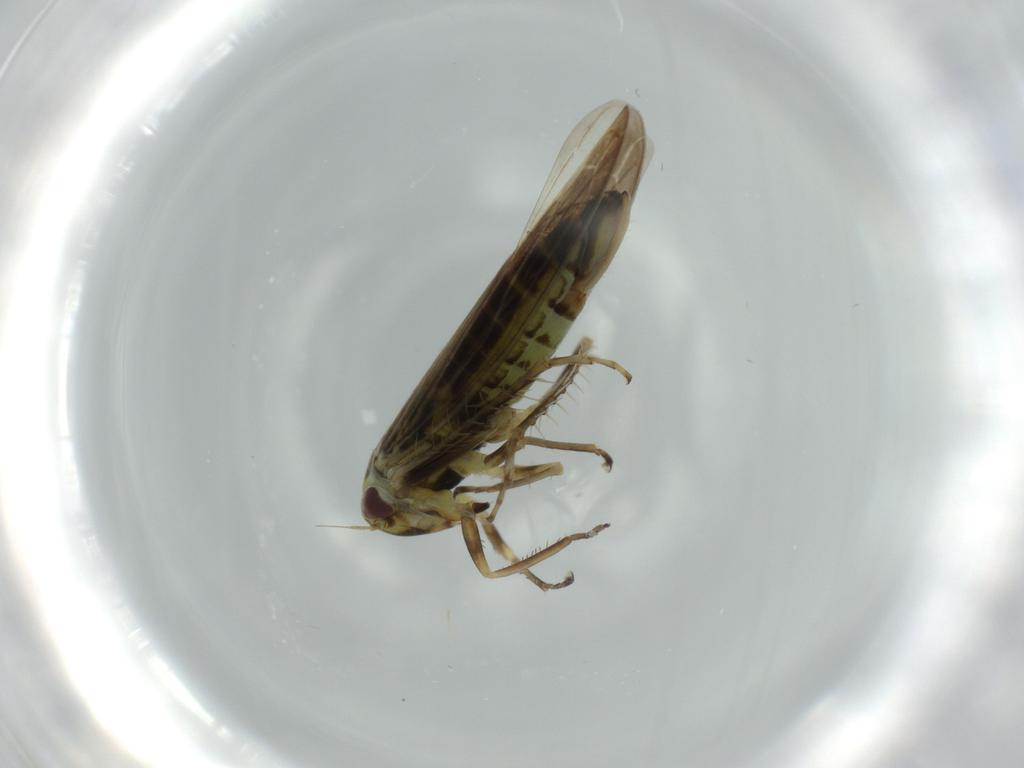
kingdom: Animalia
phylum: Arthropoda
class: Insecta
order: Hemiptera
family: Cicadellidae
